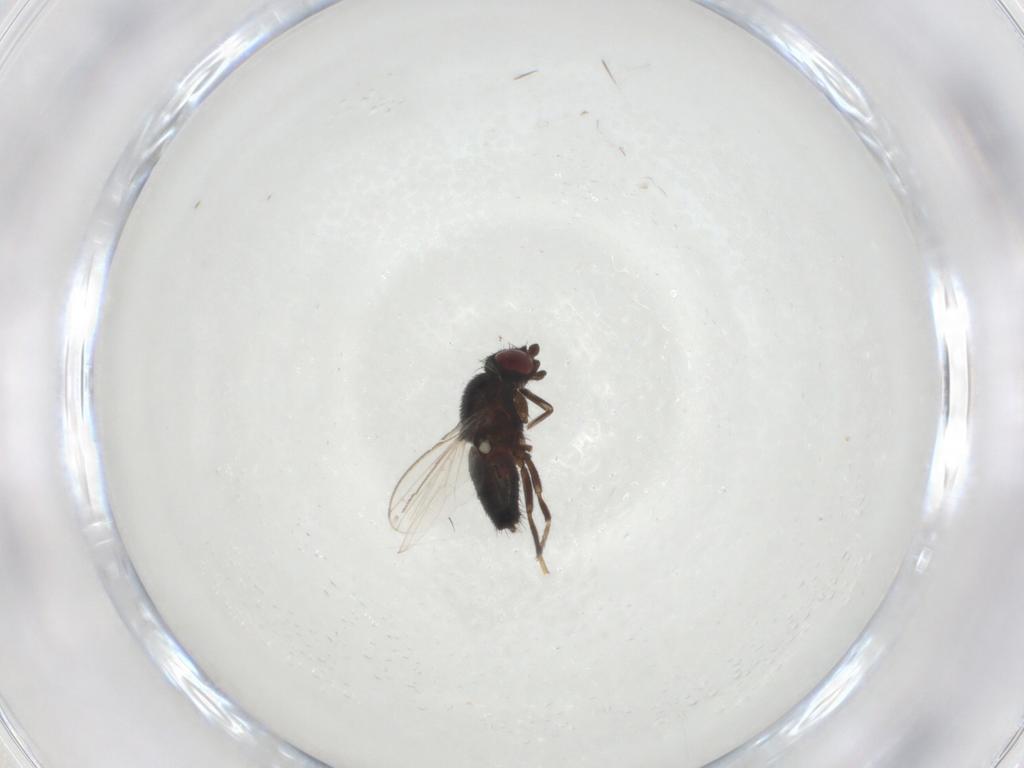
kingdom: Animalia
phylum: Arthropoda
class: Insecta
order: Diptera
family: Milichiidae
